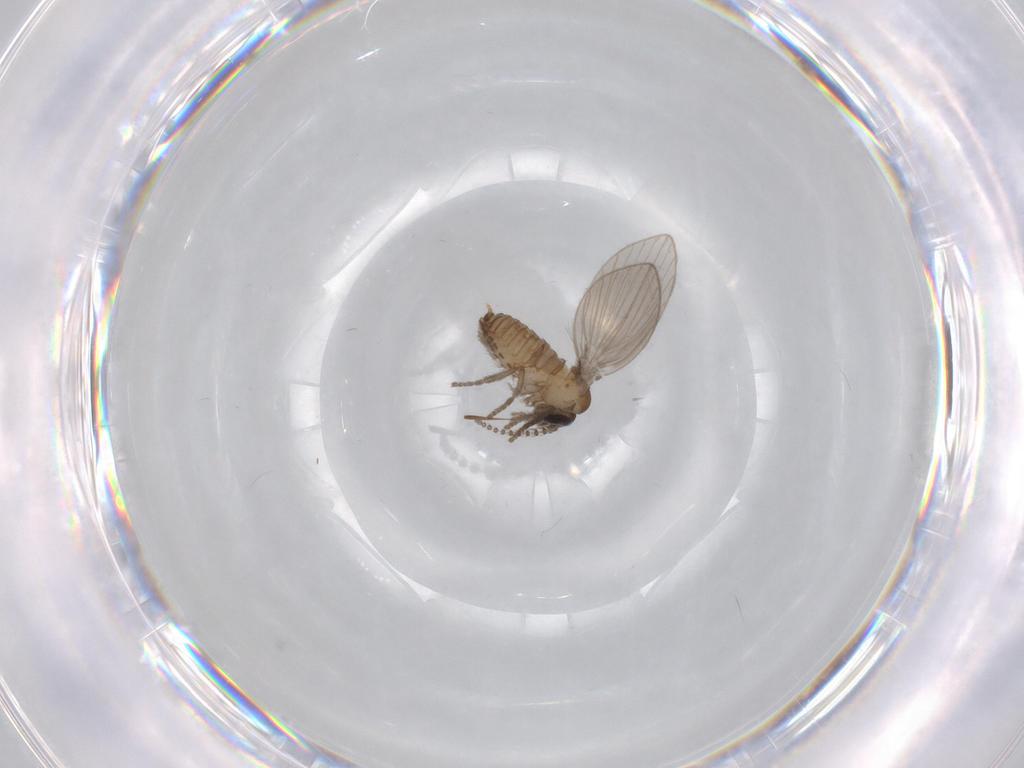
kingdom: Animalia
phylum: Arthropoda
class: Insecta
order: Diptera
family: Psychodidae
